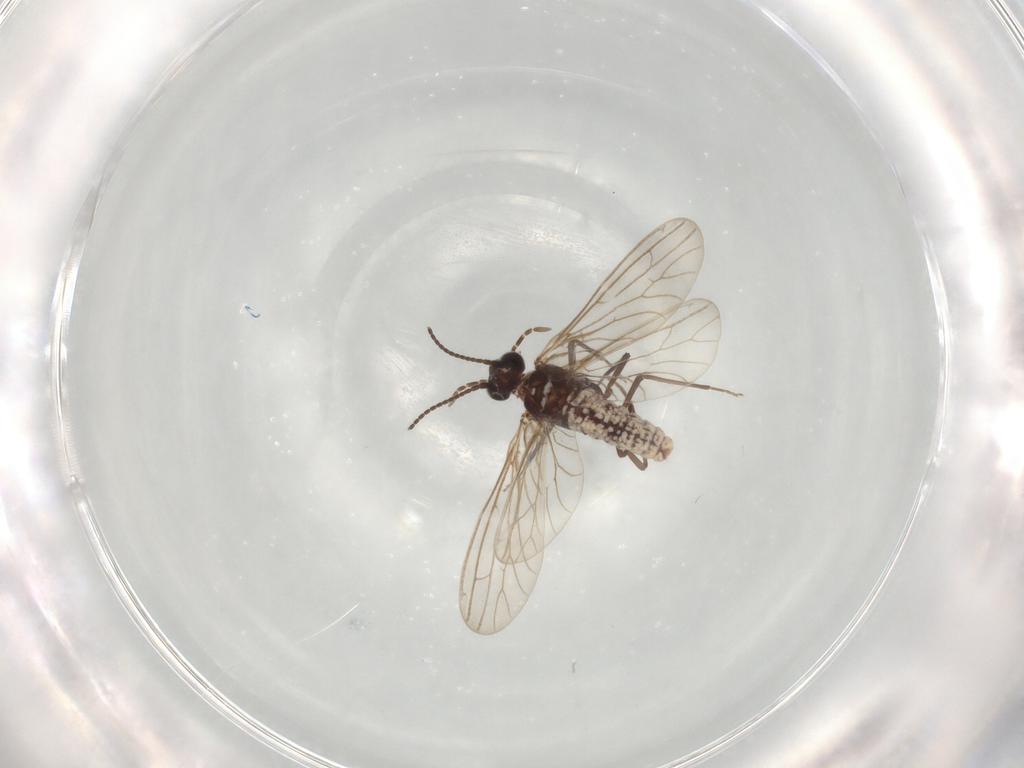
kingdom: Animalia
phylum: Arthropoda
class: Insecta
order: Neuroptera
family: Coniopterygidae
